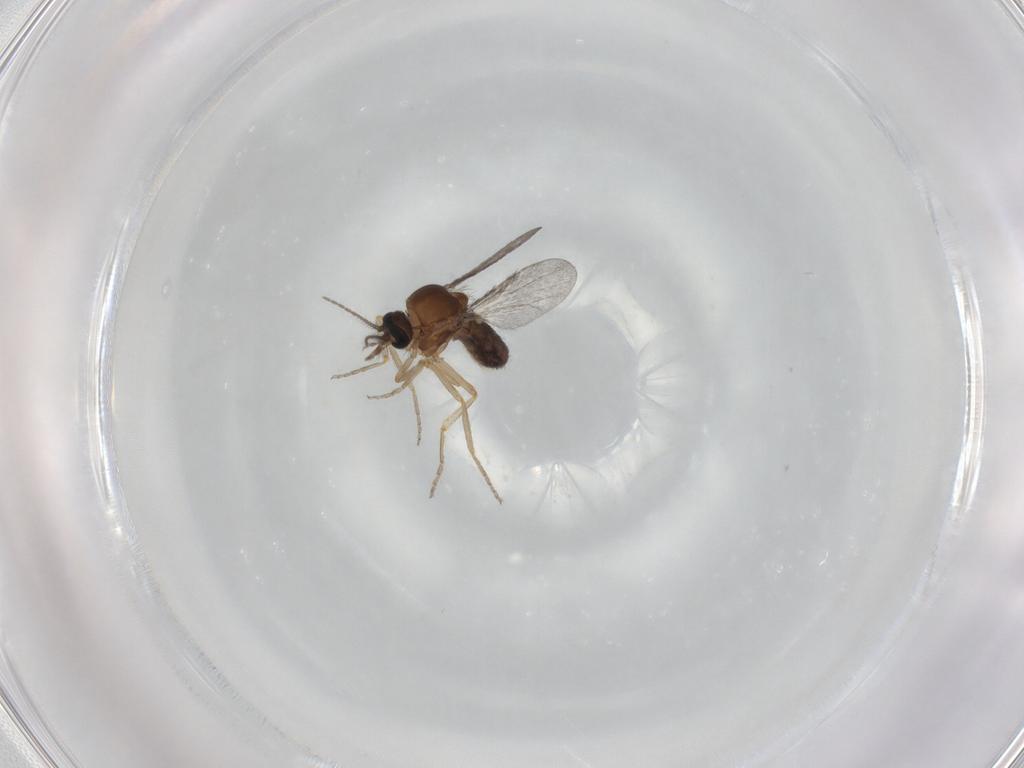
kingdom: Animalia
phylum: Arthropoda
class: Insecta
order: Diptera
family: Ceratopogonidae
